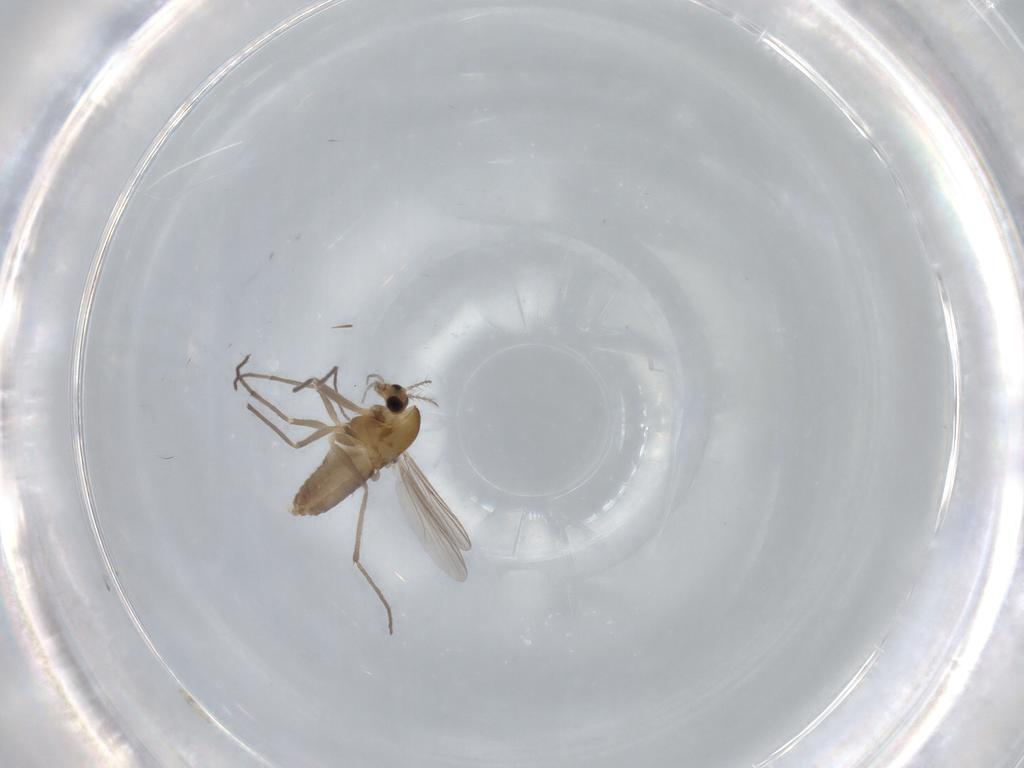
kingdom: Animalia
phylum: Arthropoda
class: Insecta
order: Diptera
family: Chironomidae
